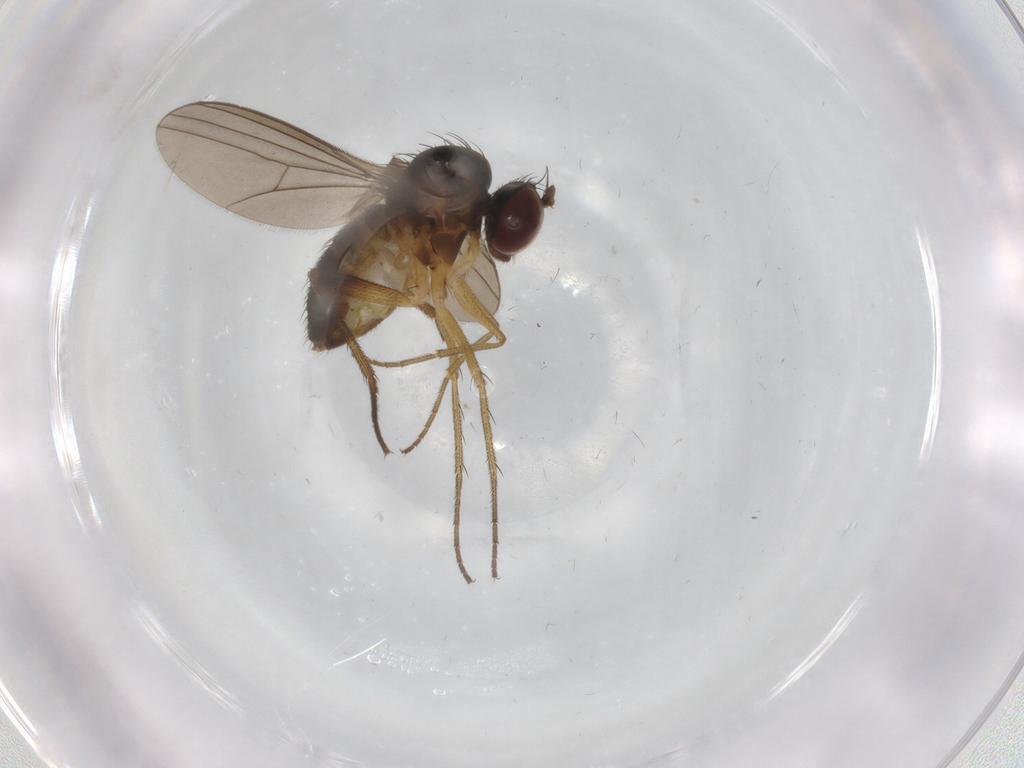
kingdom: Animalia
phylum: Arthropoda
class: Insecta
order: Diptera
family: Dolichopodidae
